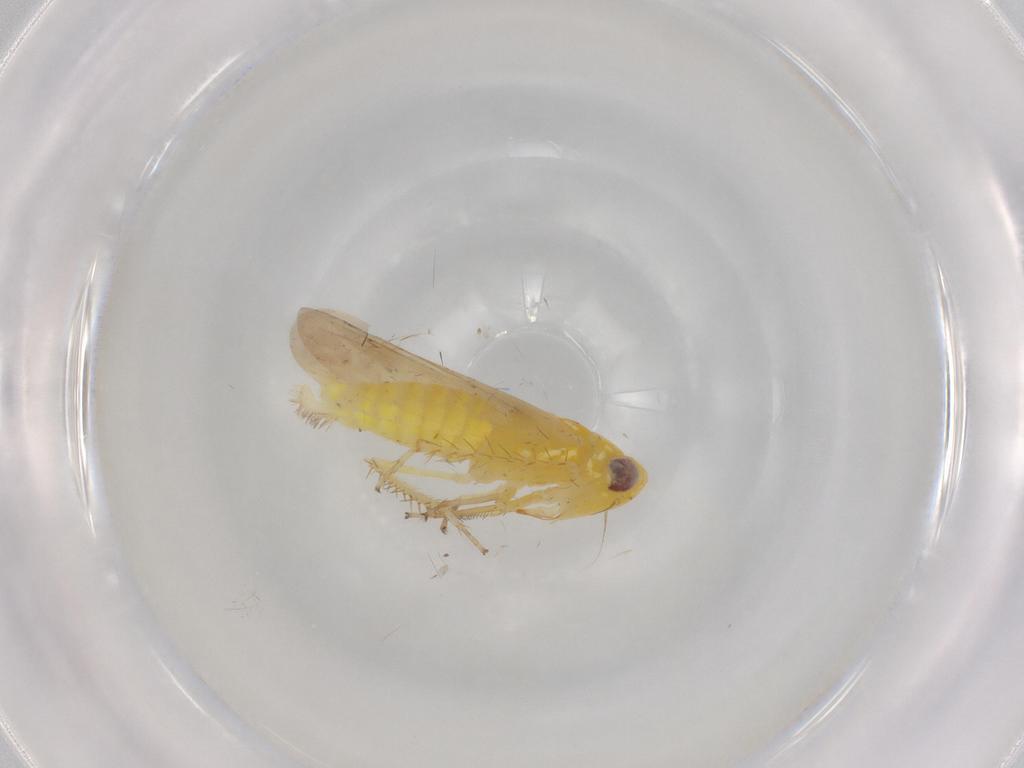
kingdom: Animalia
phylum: Arthropoda
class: Insecta
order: Hemiptera
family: Cicadellidae
